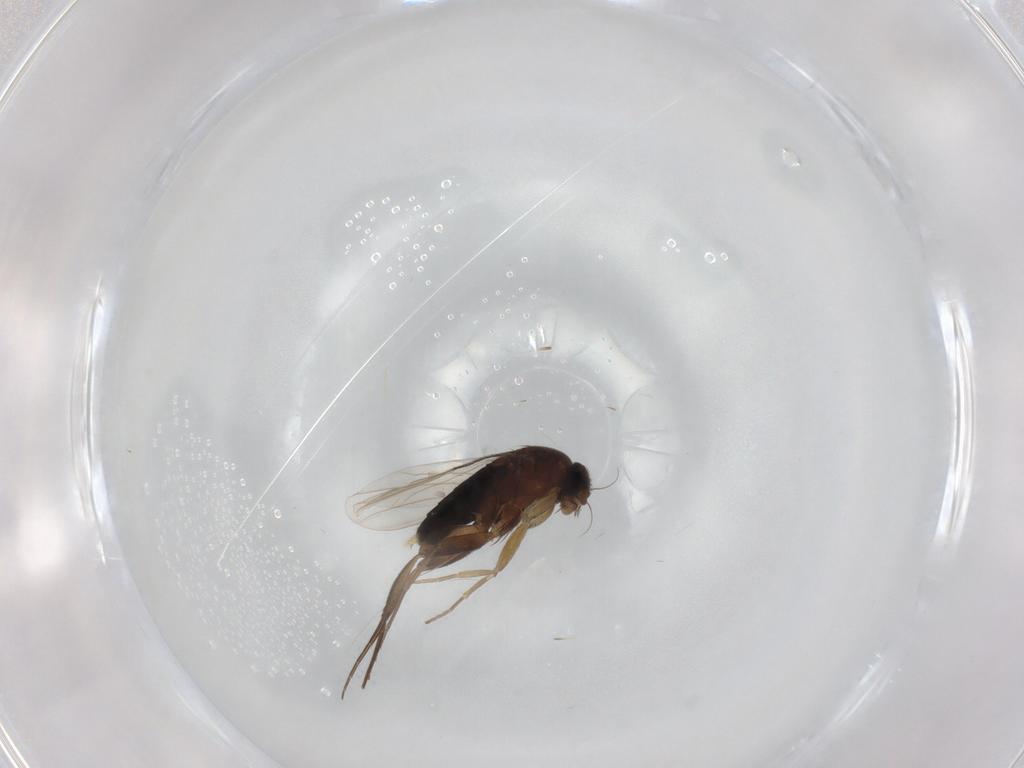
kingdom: Animalia
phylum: Arthropoda
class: Insecta
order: Diptera
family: Phoridae
